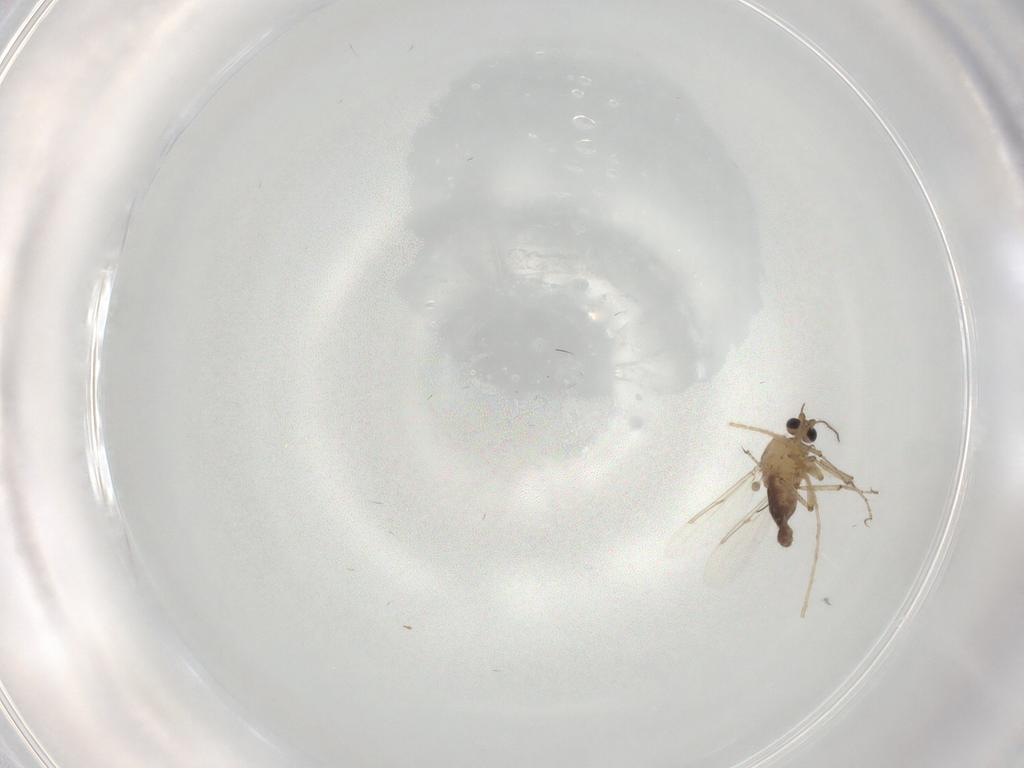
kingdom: Animalia
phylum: Arthropoda
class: Insecta
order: Diptera
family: Ceratopogonidae
